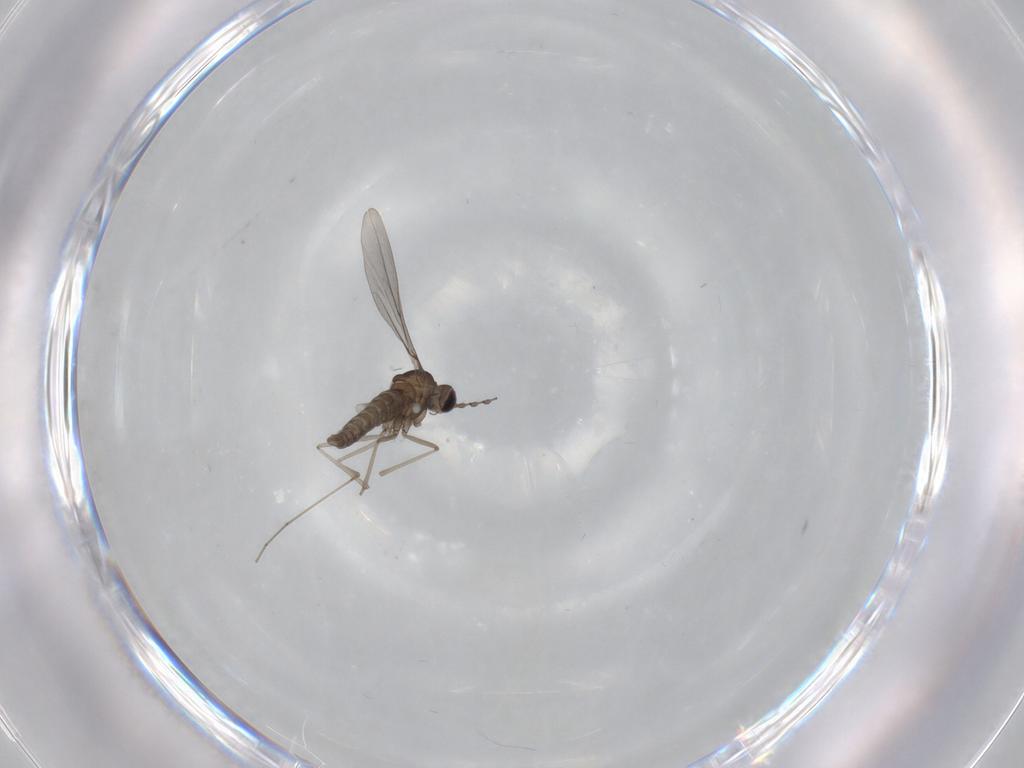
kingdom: Animalia
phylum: Arthropoda
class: Insecta
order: Diptera
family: Cecidomyiidae
